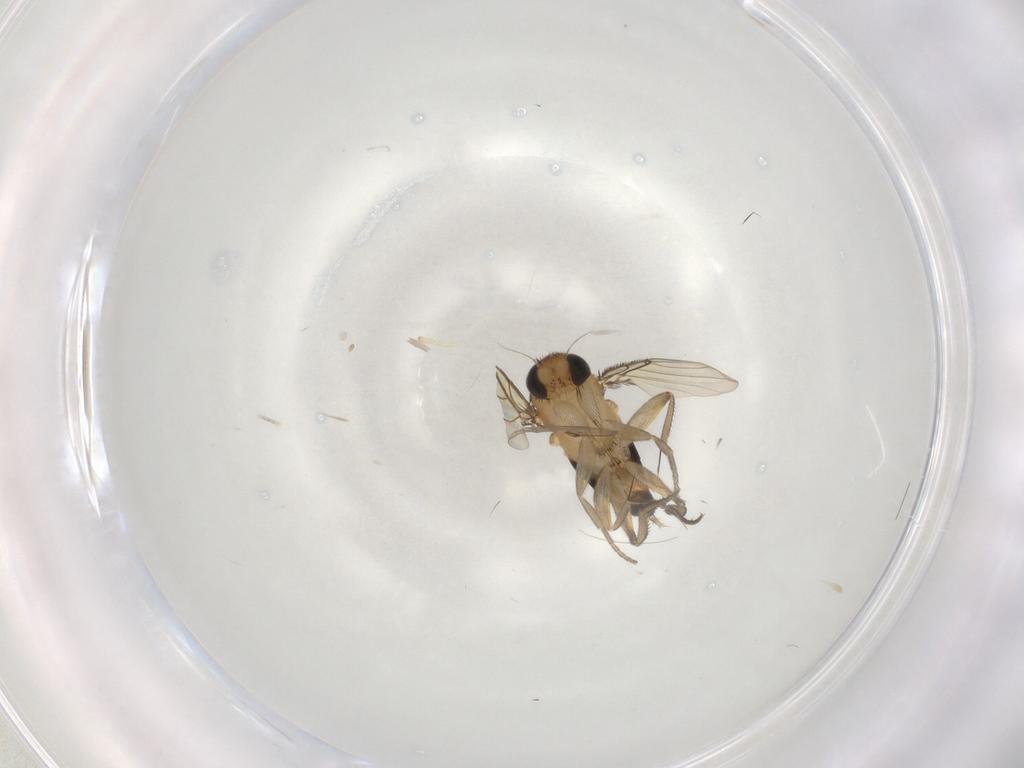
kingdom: Animalia
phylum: Arthropoda
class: Insecta
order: Diptera
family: Phoridae
